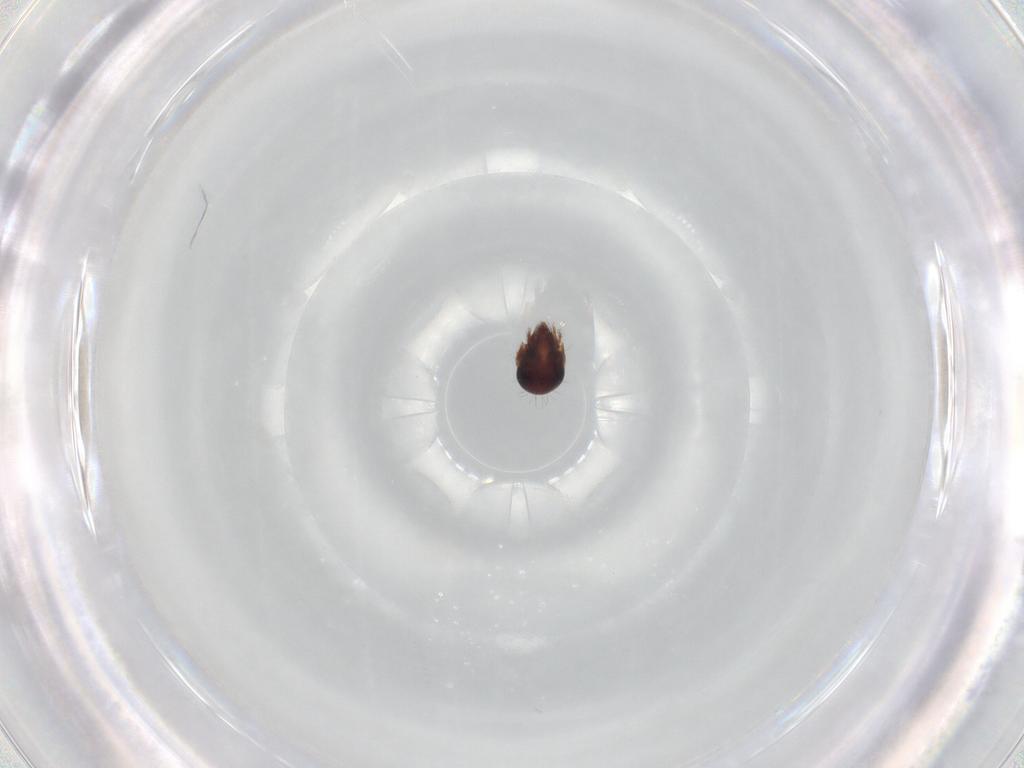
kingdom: Animalia
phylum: Arthropoda
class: Arachnida
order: Sarcoptiformes
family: Humerobatidae
